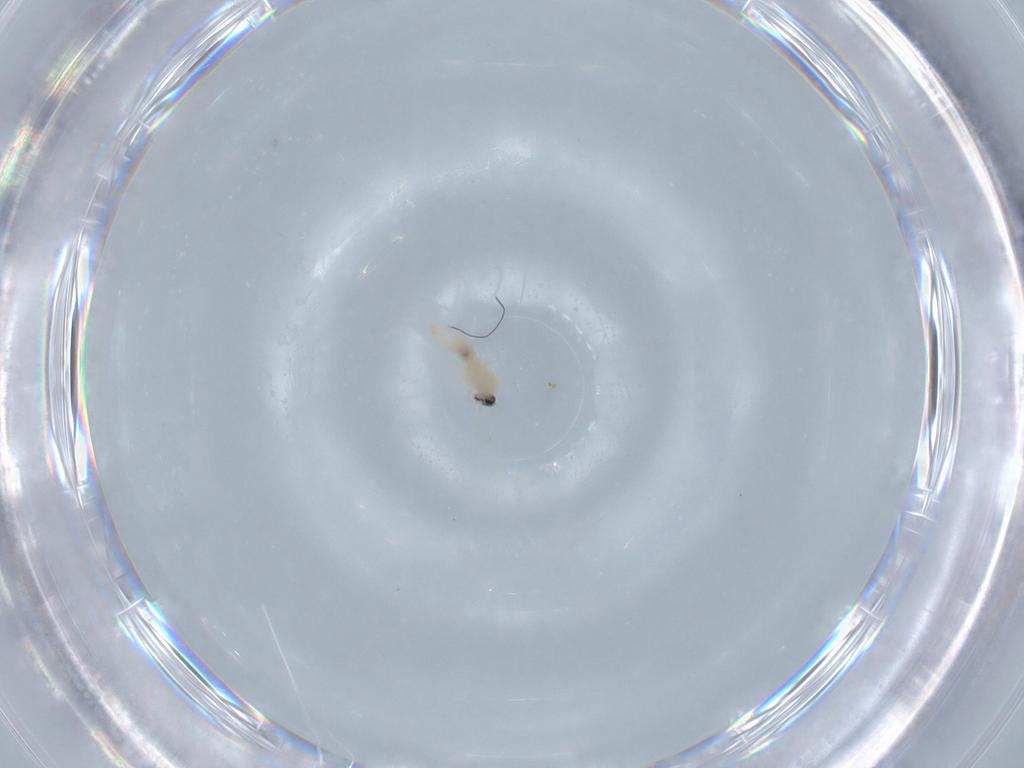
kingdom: Animalia
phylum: Arthropoda
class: Insecta
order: Diptera
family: Cecidomyiidae
